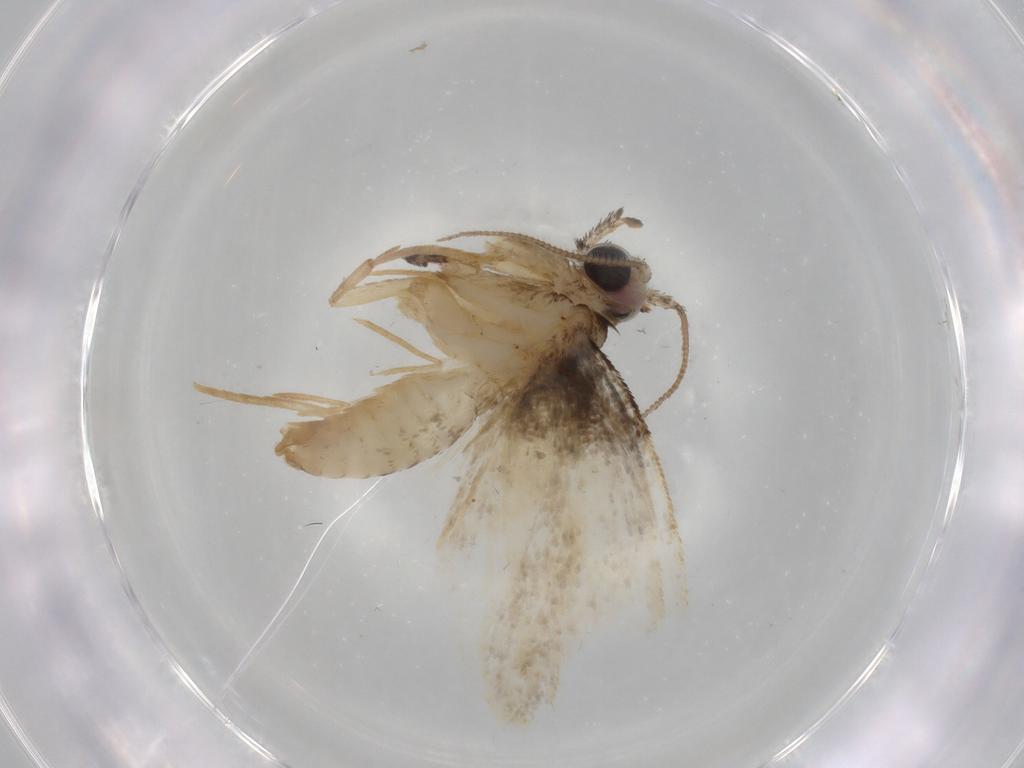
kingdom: Animalia
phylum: Arthropoda
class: Insecta
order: Lepidoptera
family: Psychidae
